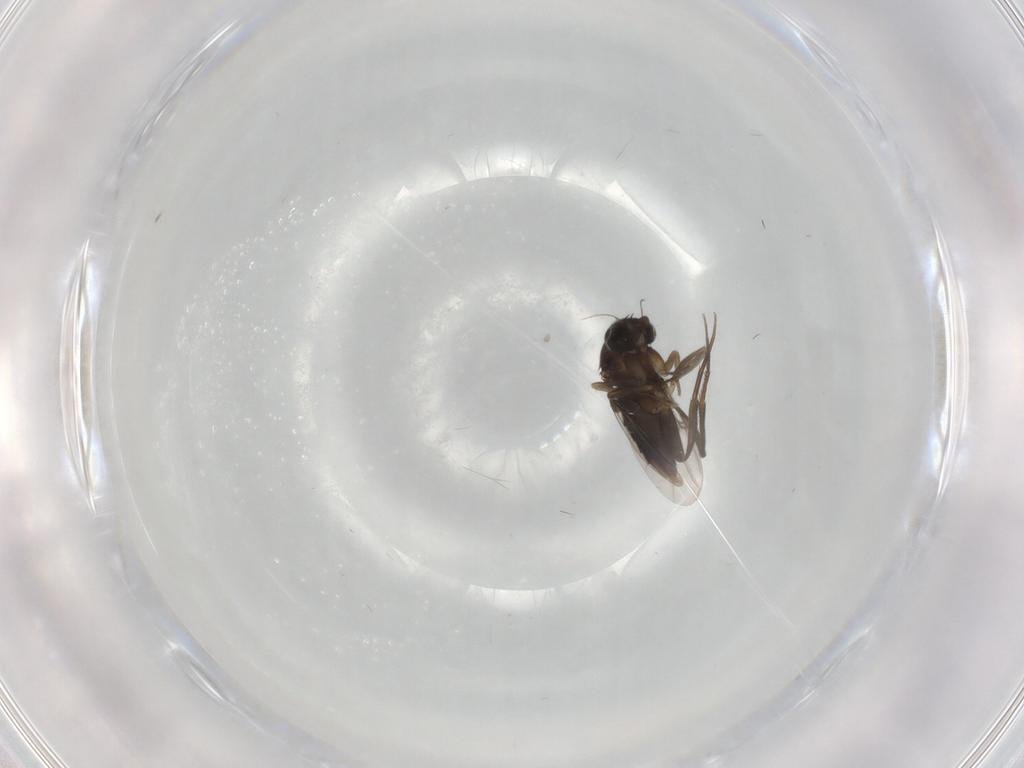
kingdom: Animalia
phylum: Arthropoda
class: Insecta
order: Diptera
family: Phoridae
